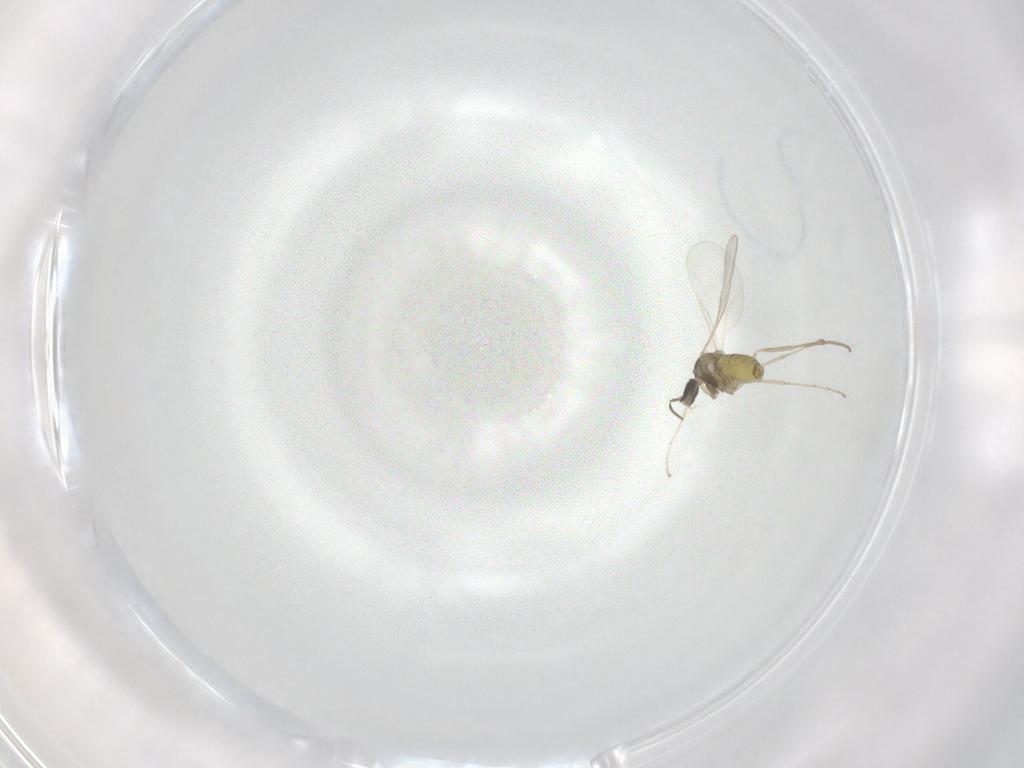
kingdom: Animalia
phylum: Arthropoda
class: Insecta
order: Diptera
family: Cecidomyiidae
